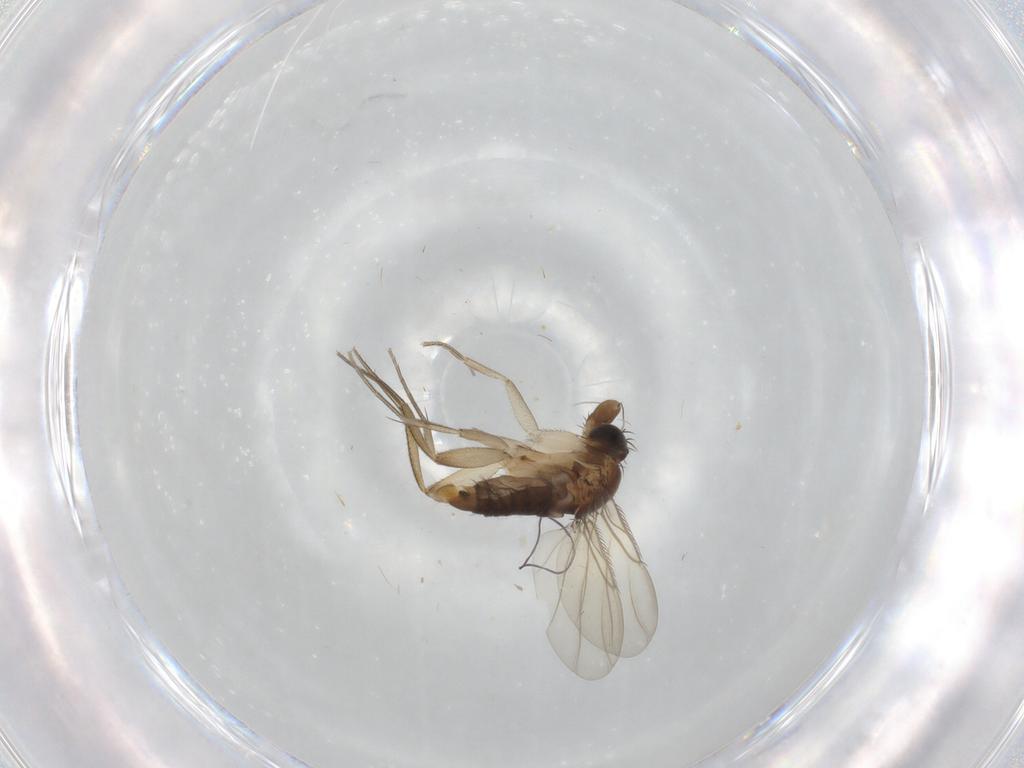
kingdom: Animalia
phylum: Arthropoda
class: Insecta
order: Diptera
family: Phoridae
